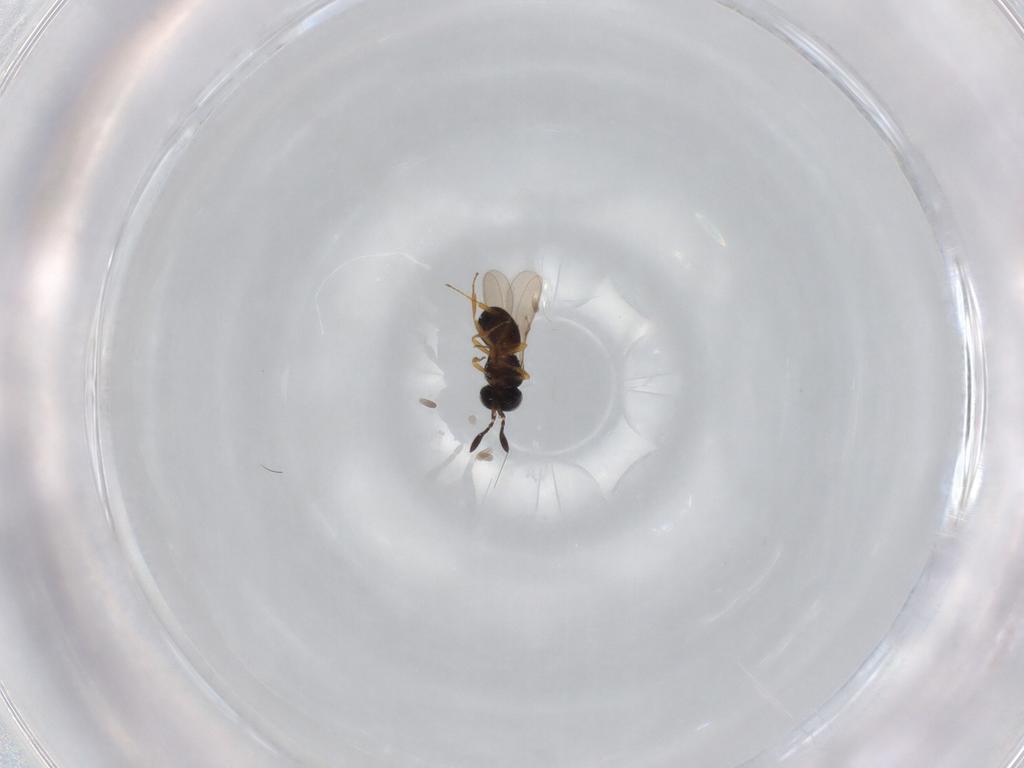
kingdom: Animalia
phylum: Arthropoda
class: Insecta
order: Hymenoptera
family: Scelionidae
